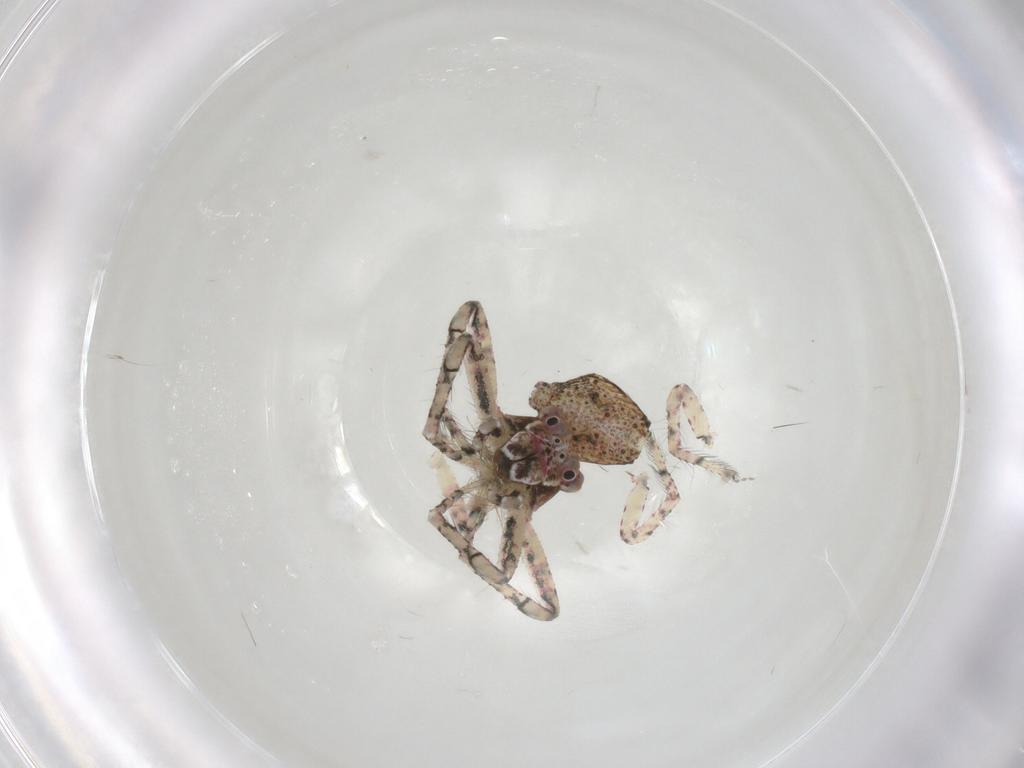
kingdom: Animalia
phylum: Arthropoda
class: Arachnida
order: Araneae
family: Thomisidae
